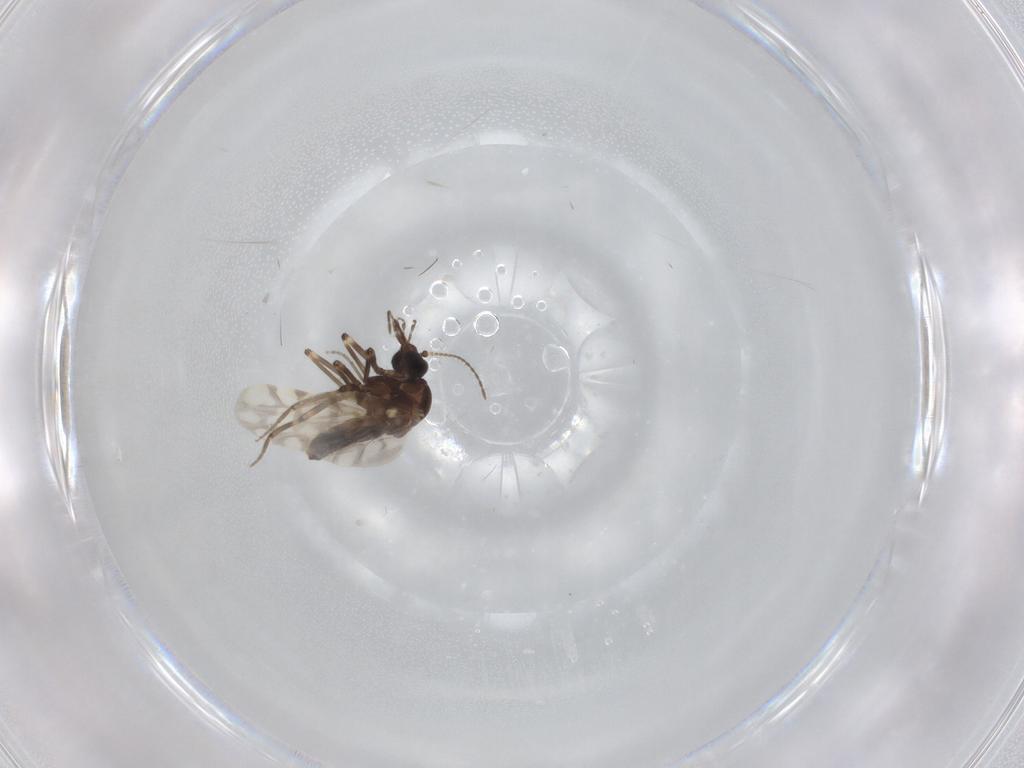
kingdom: Animalia
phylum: Arthropoda
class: Insecta
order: Diptera
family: Ceratopogonidae
